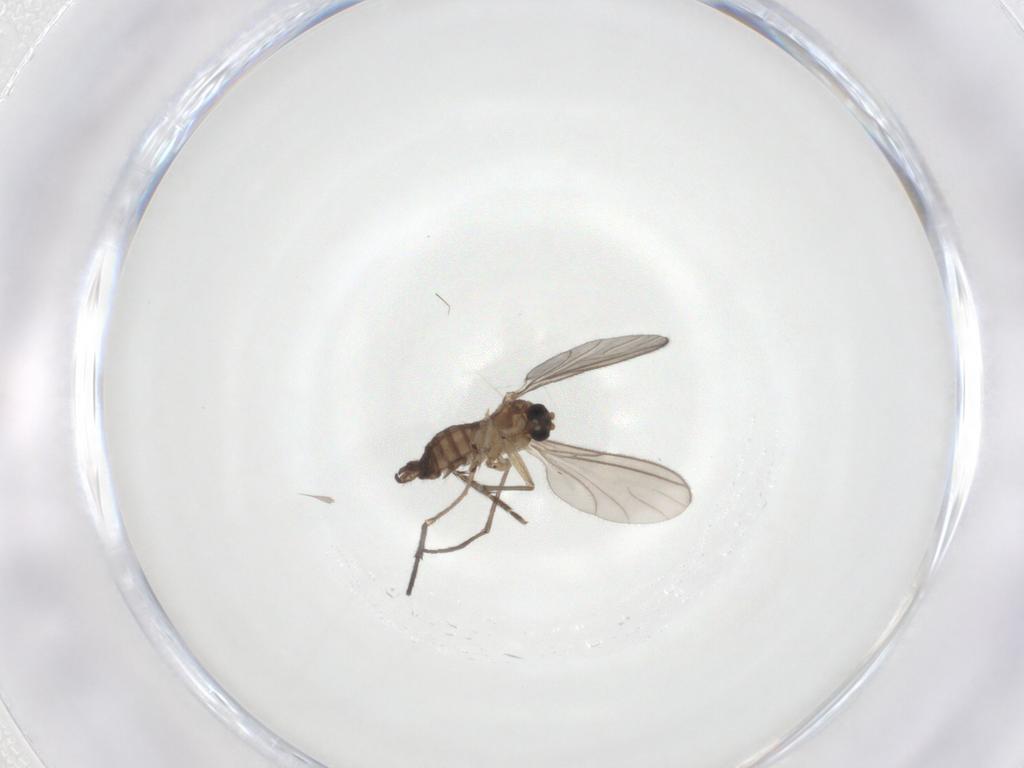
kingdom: Animalia
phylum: Arthropoda
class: Insecta
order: Diptera
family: Sciaridae
